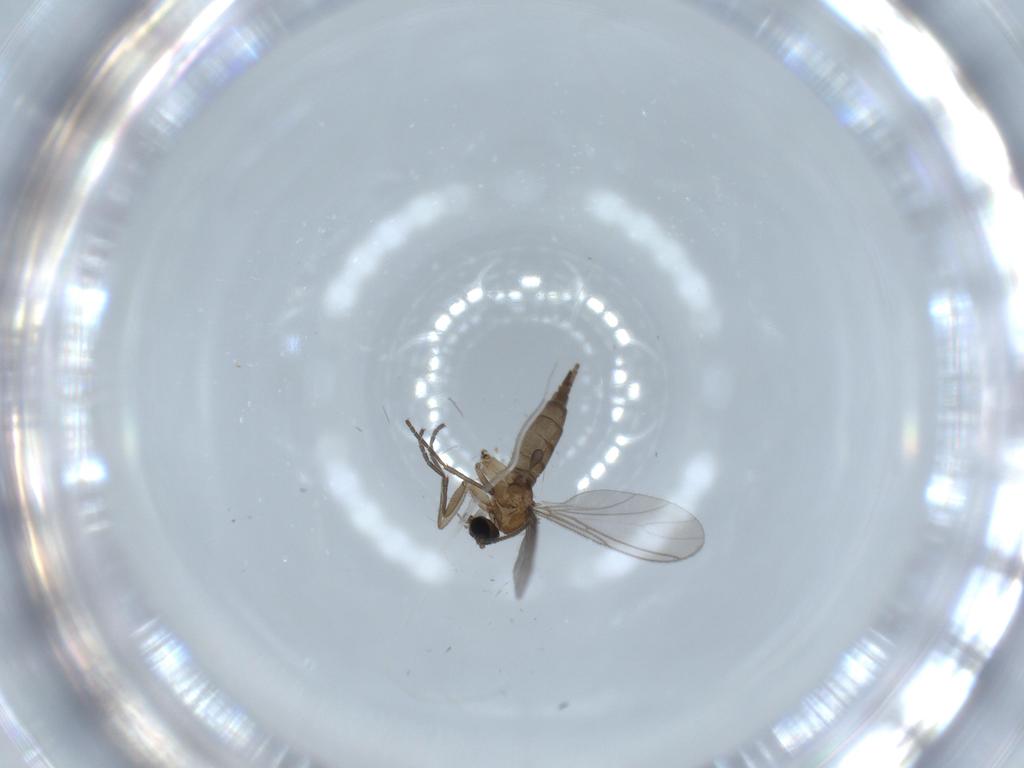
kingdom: Animalia
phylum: Arthropoda
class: Insecta
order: Diptera
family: Sciaridae
